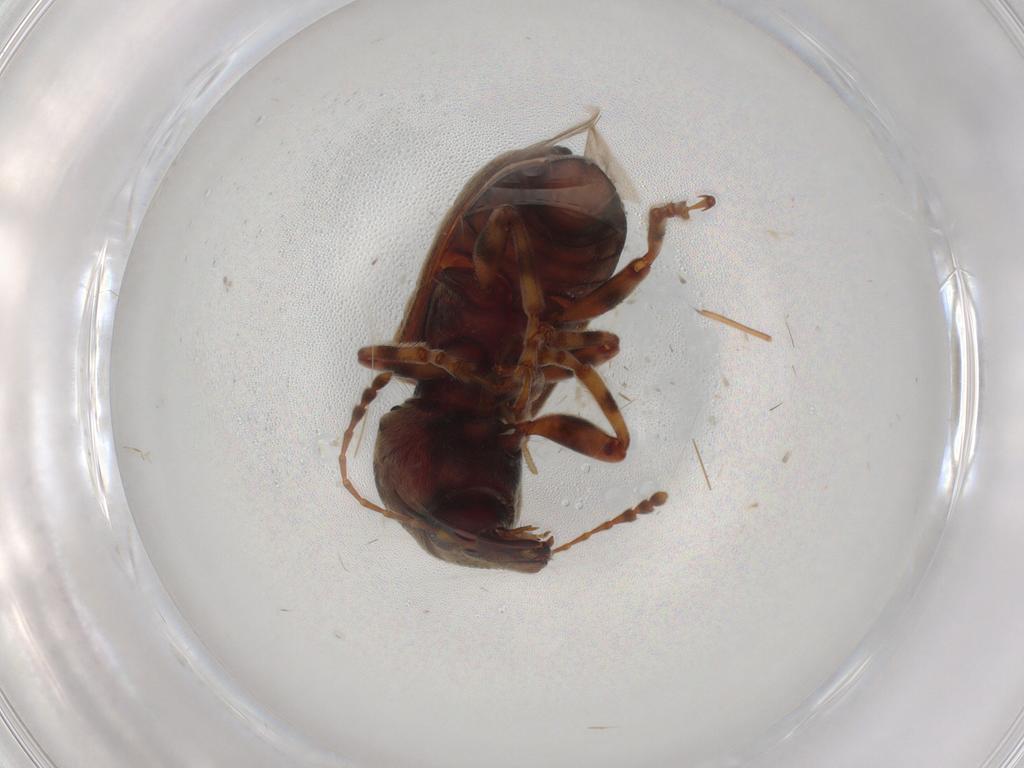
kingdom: Animalia
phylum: Arthropoda
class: Insecta
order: Coleoptera
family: Anthribidae
